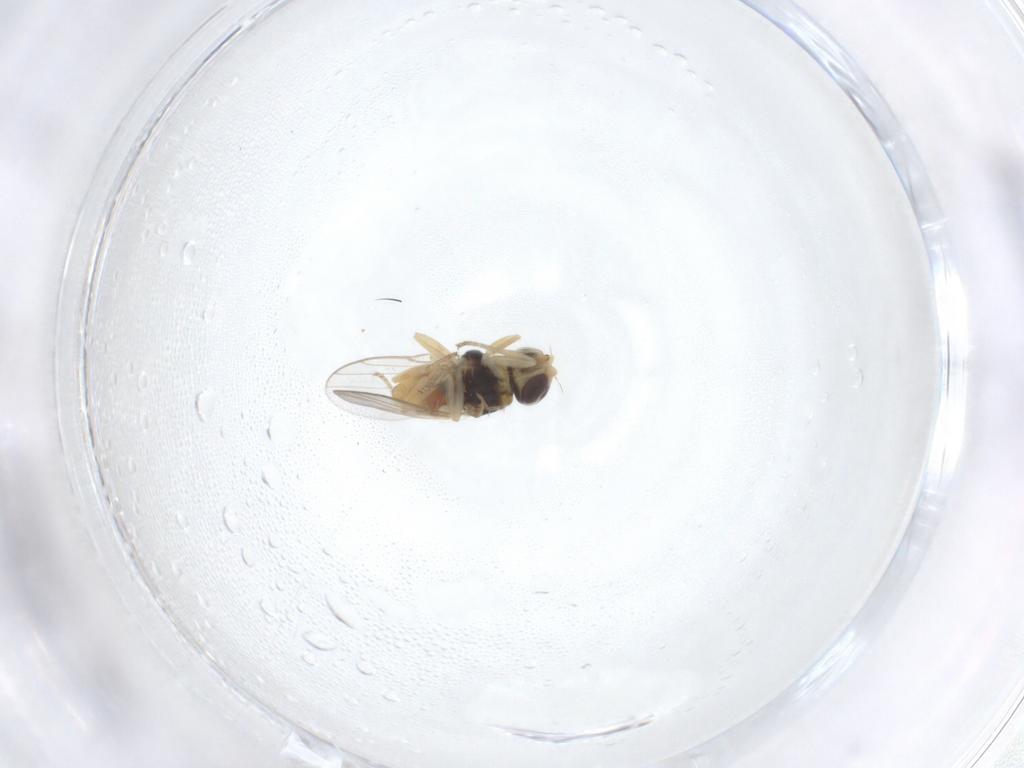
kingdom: Animalia
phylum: Arthropoda
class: Insecta
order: Diptera
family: Chloropidae
